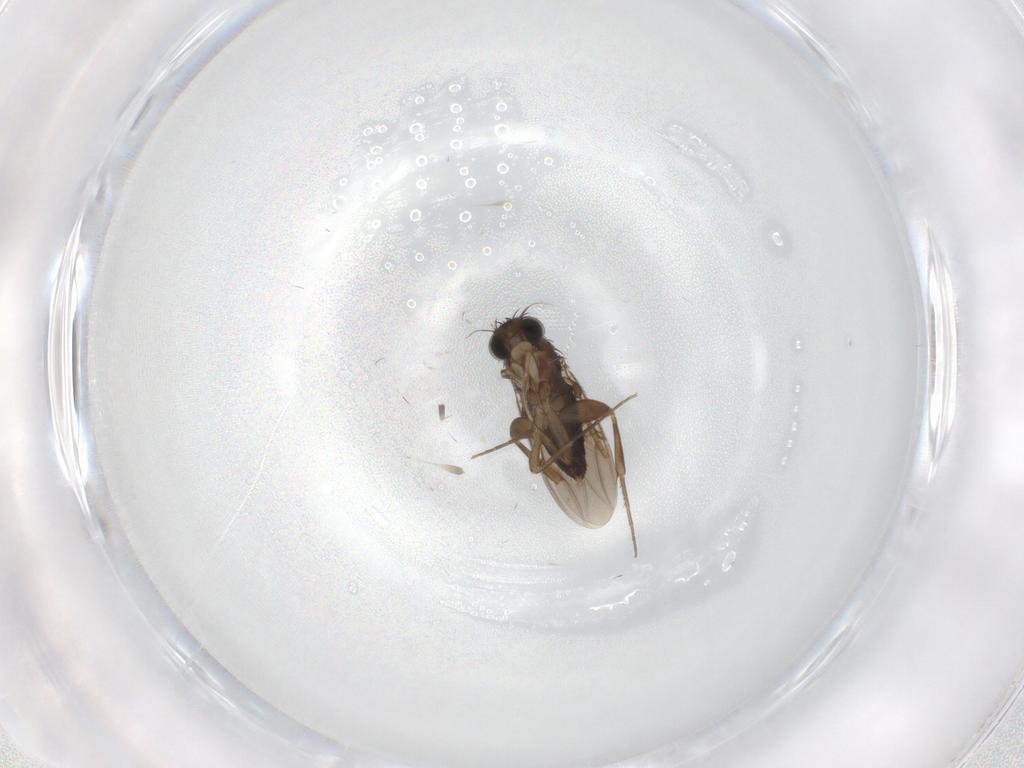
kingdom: Animalia
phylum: Arthropoda
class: Insecta
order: Diptera
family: Phoridae
